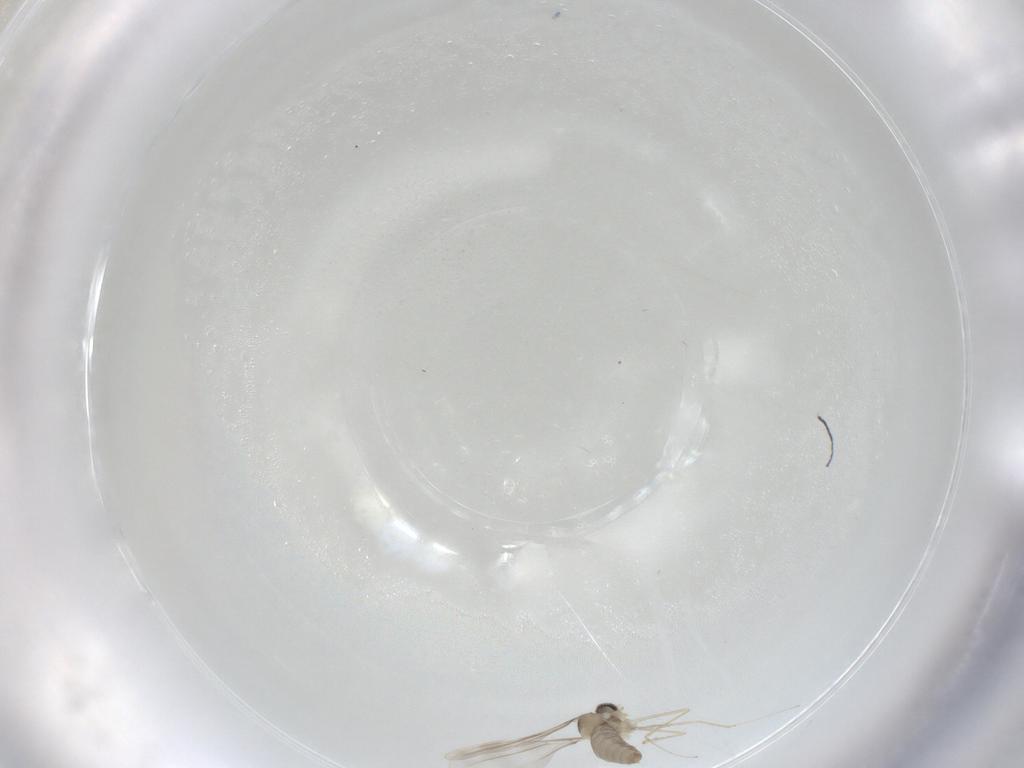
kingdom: Animalia
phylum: Arthropoda
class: Insecta
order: Diptera
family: Cecidomyiidae
